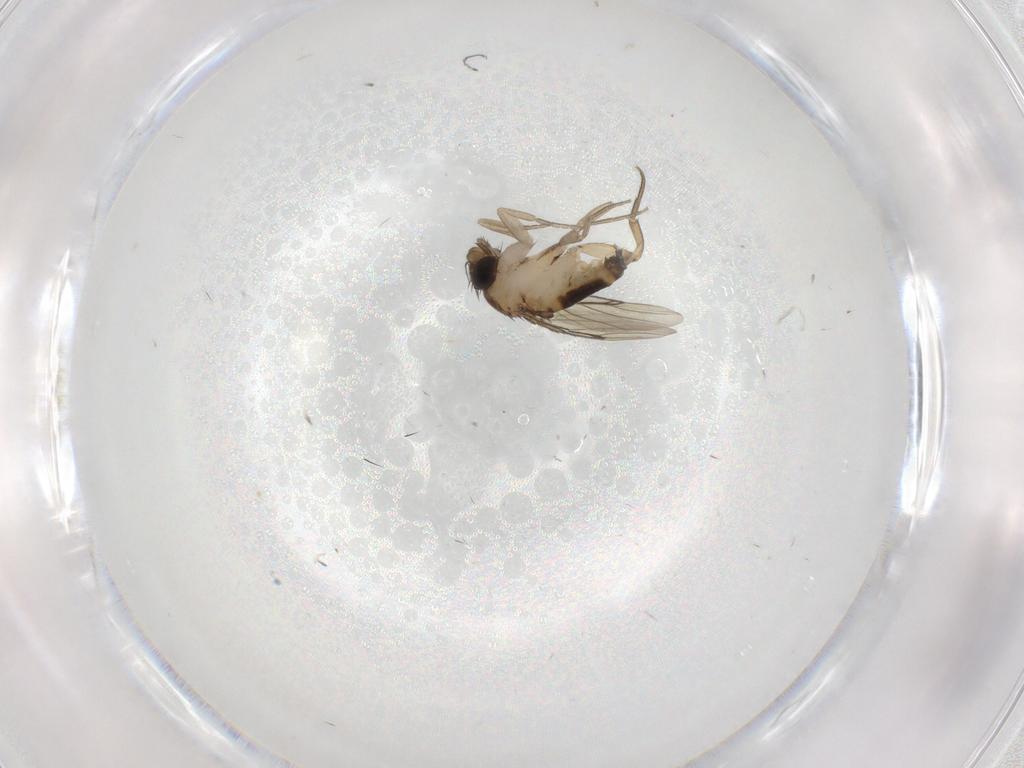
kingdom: Animalia
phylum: Arthropoda
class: Insecta
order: Diptera
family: Phoridae
